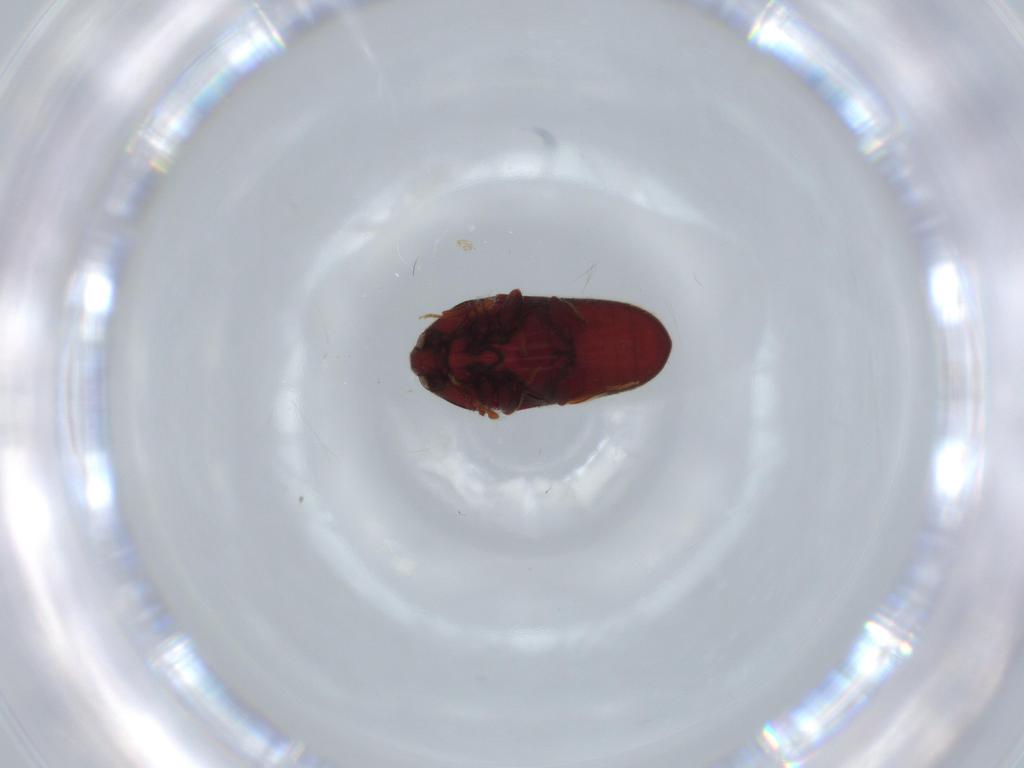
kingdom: Animalia
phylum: Arthropoda
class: Insecta
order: Coleoptera
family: Throscidae
